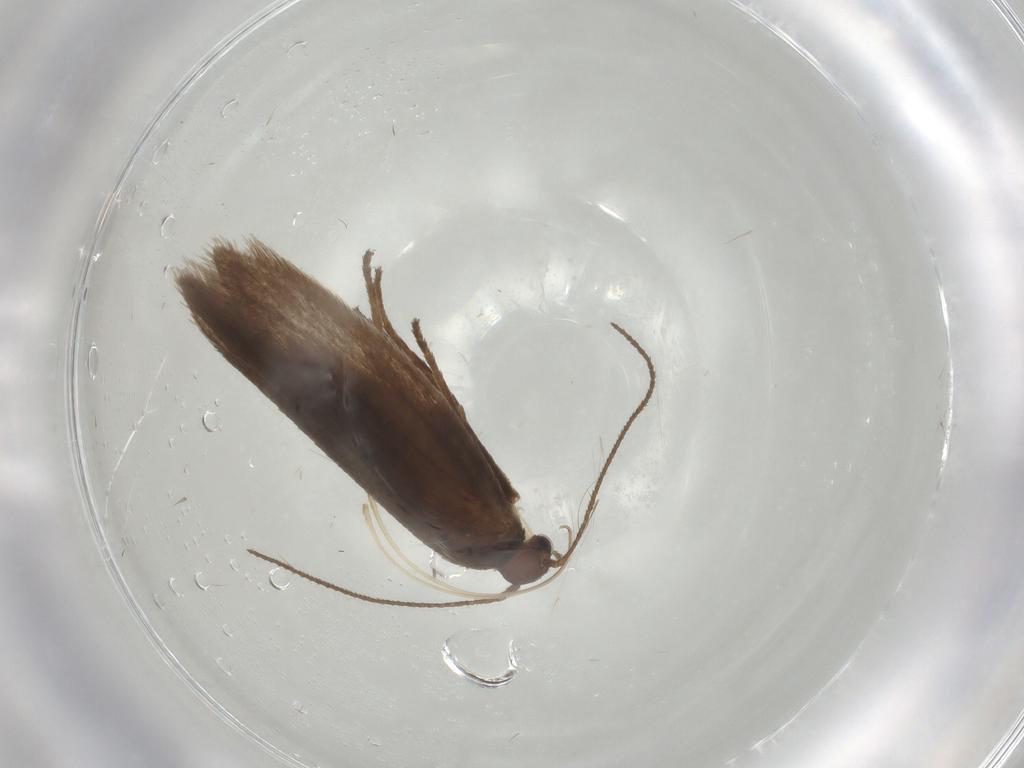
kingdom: Animalia
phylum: Arthropoda
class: Insecta
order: Lepidoptera
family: Limacodidae
